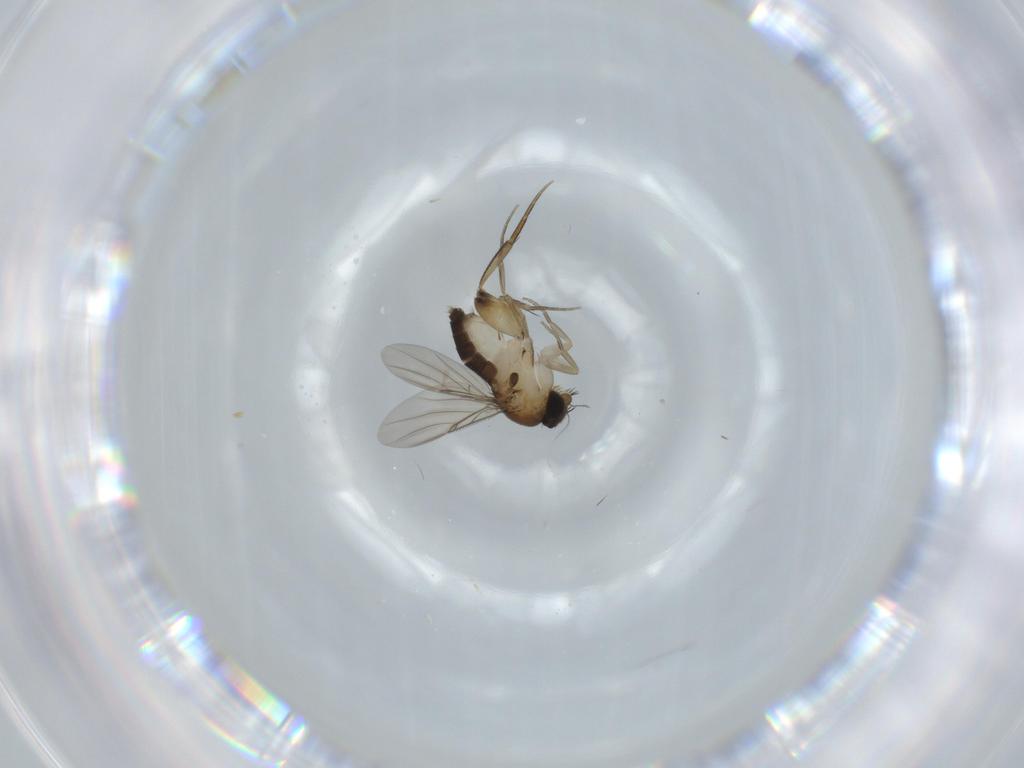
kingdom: Animalia
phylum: Arthropoda
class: Insecta
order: Diptera
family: Phoridae
